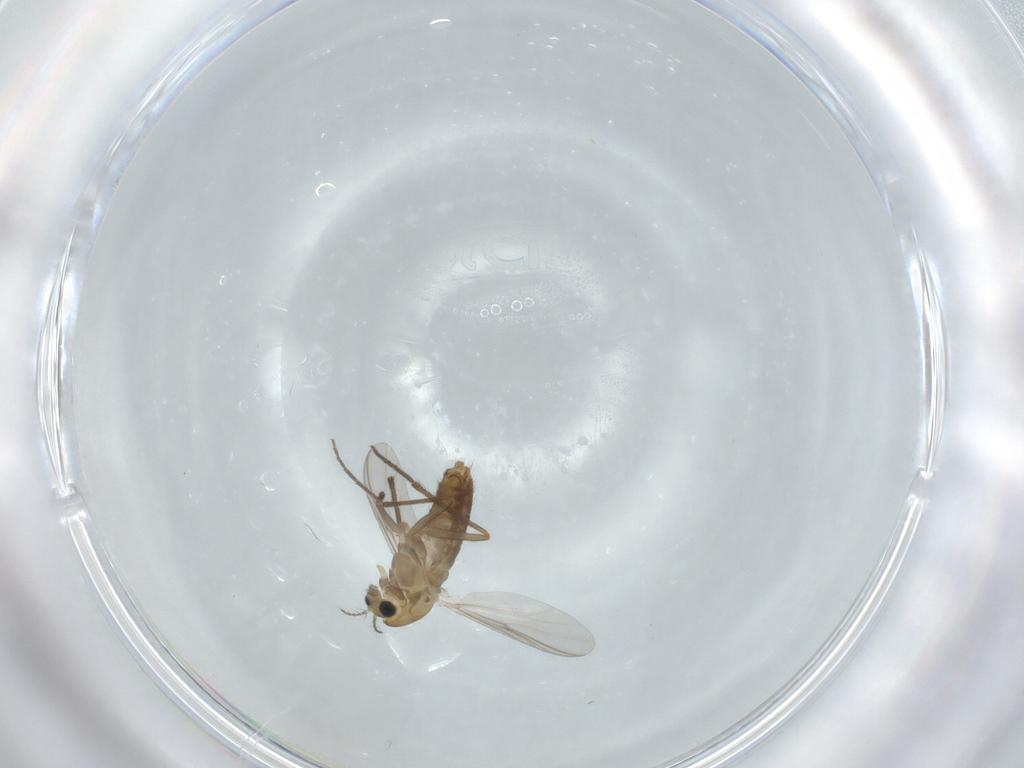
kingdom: Animalia
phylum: Arthropoda
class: Insecta
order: Diptera
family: Chironomidae
